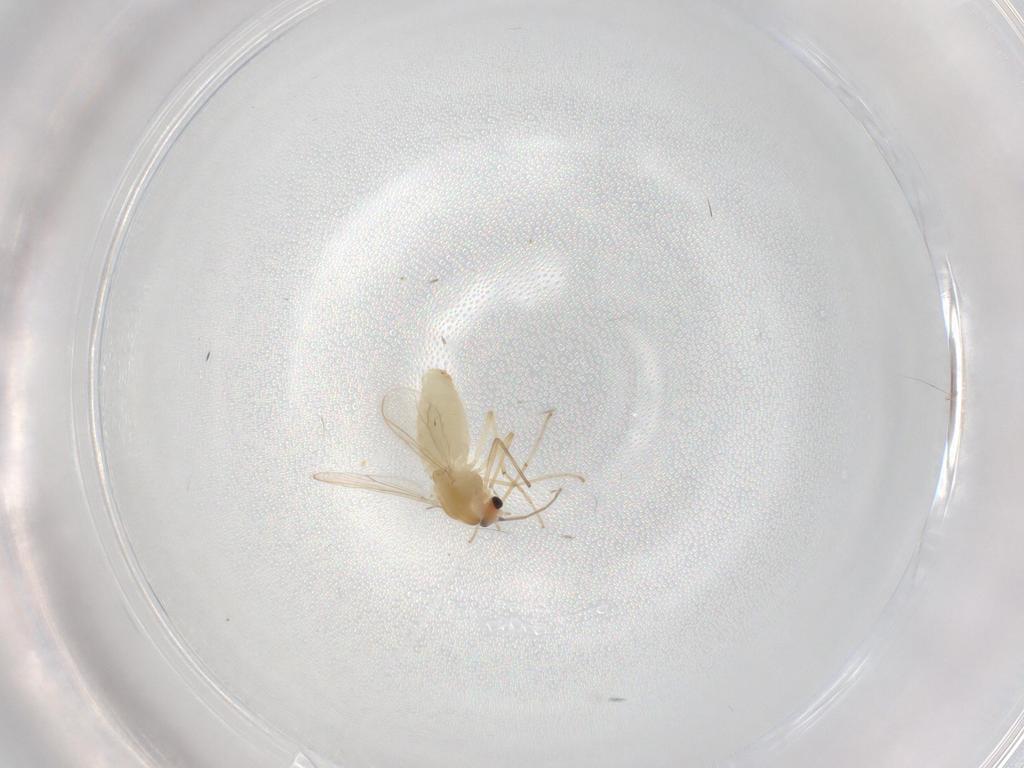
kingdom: Animalia
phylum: Arthropoda
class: Insecta
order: Diptera
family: Chironomidae
